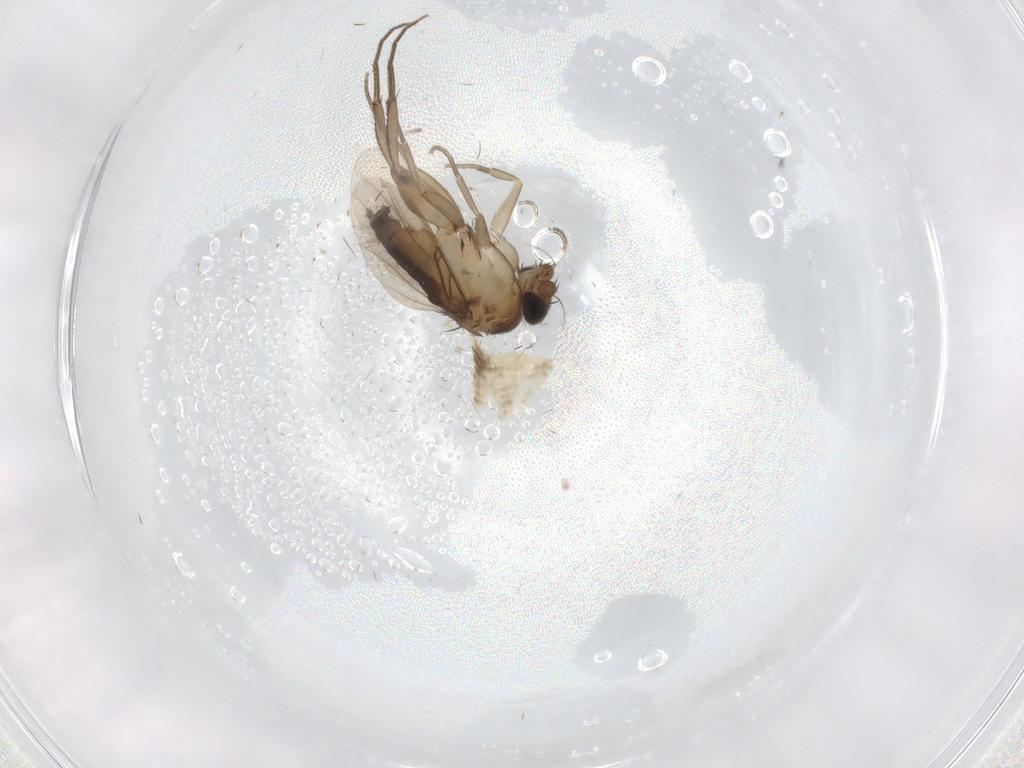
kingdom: Animalia
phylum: Arthropoda
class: Insecta
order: Diptera
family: Phoridae
